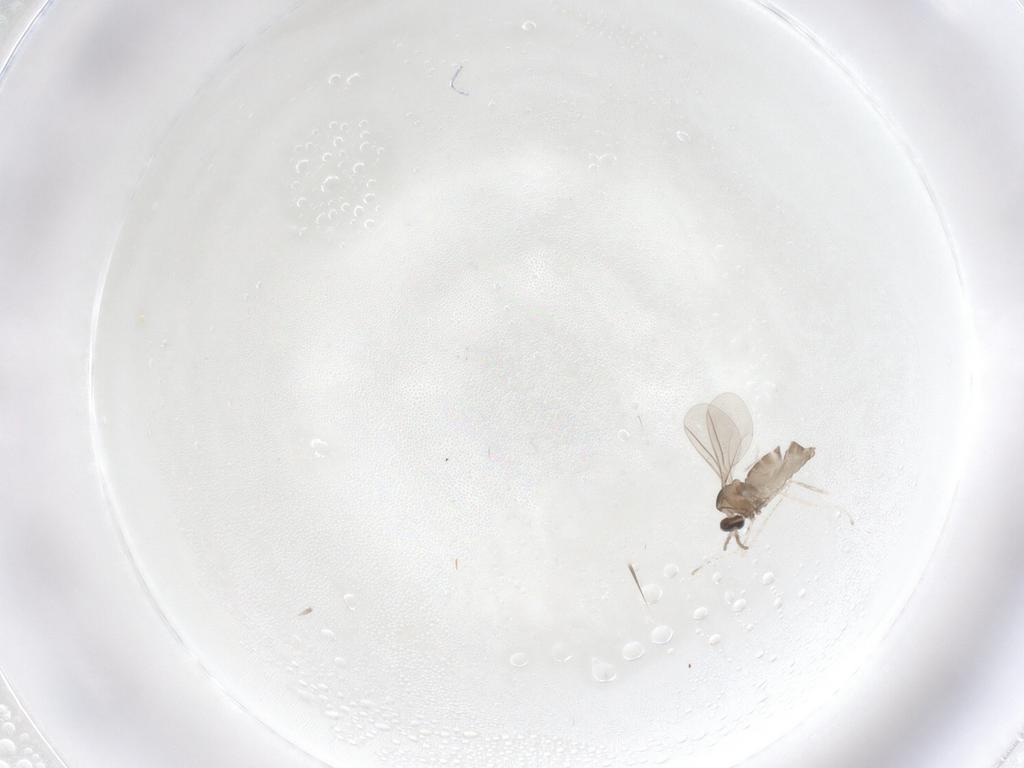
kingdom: Animalia
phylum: Arthropoda
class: Insecta
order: Diptera
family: Cecidomyiidae
